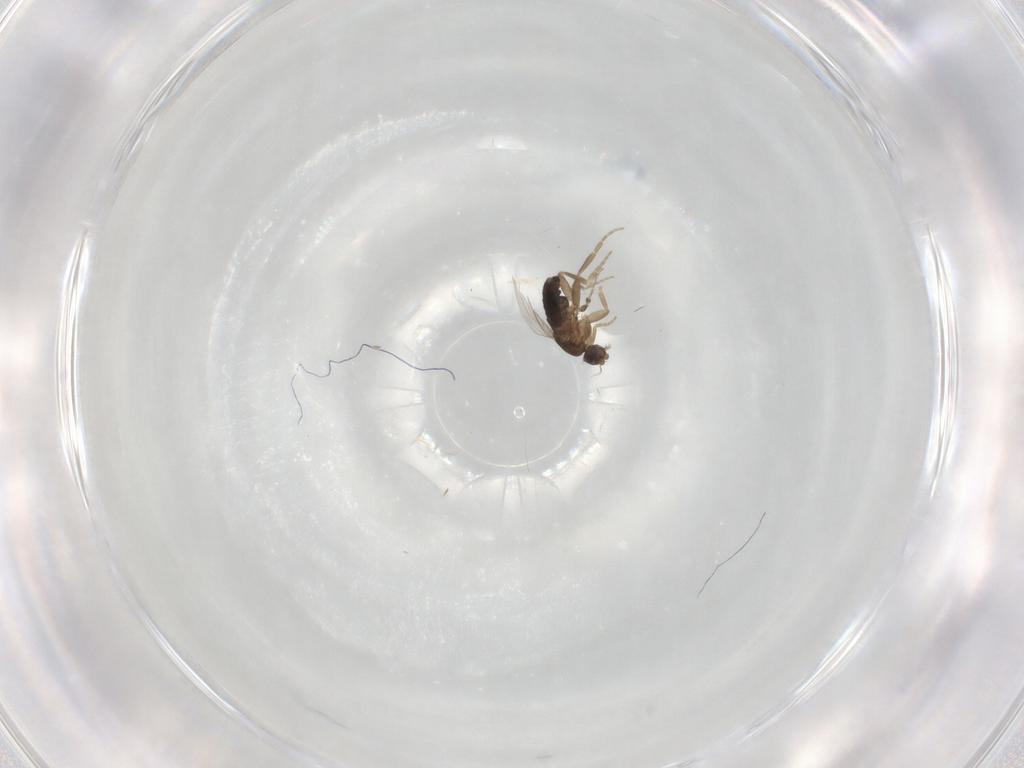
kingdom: Animalia
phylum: Arthropoda
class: Insecta
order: Diptera
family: Phoridae
